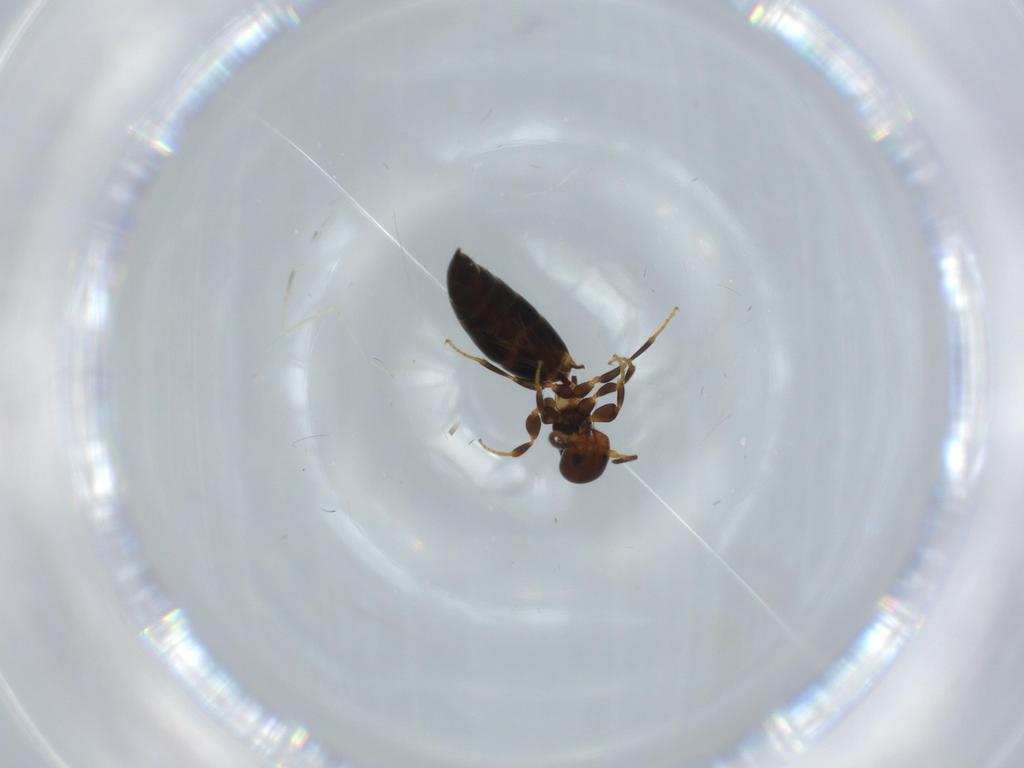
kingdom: Animalia
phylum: Arthropoda
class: Insecta
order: Hymenoptera
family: Bethylidae
